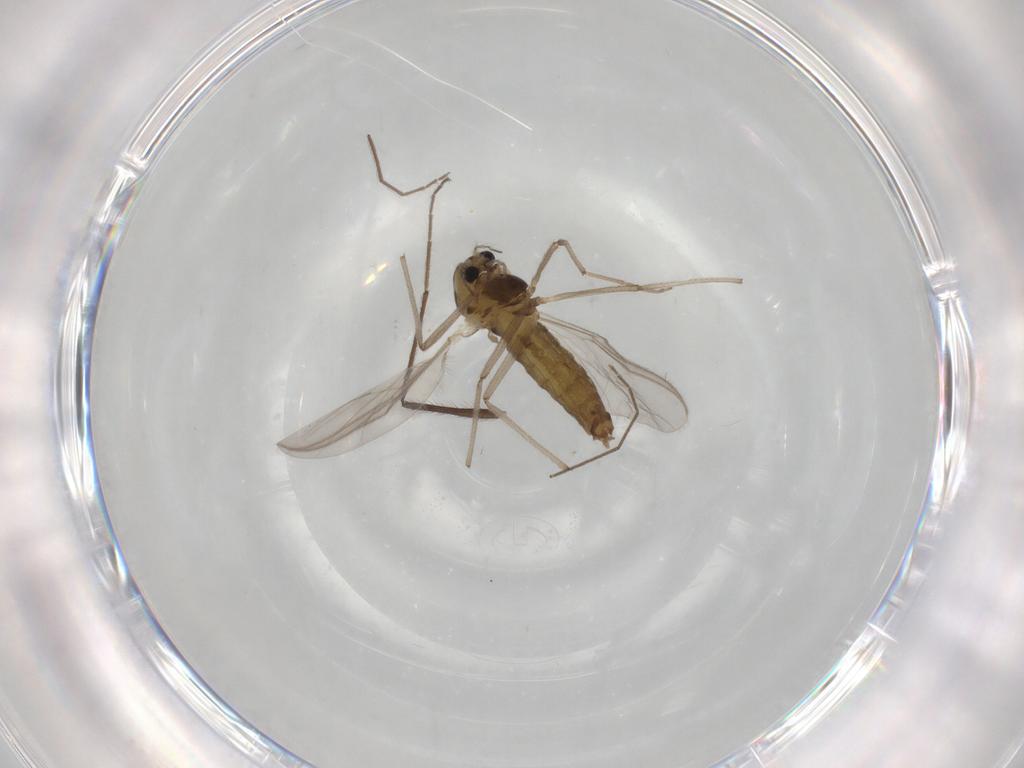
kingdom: Animalia
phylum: Arthropoda
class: Insecta
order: Diptera
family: Chironomidae
